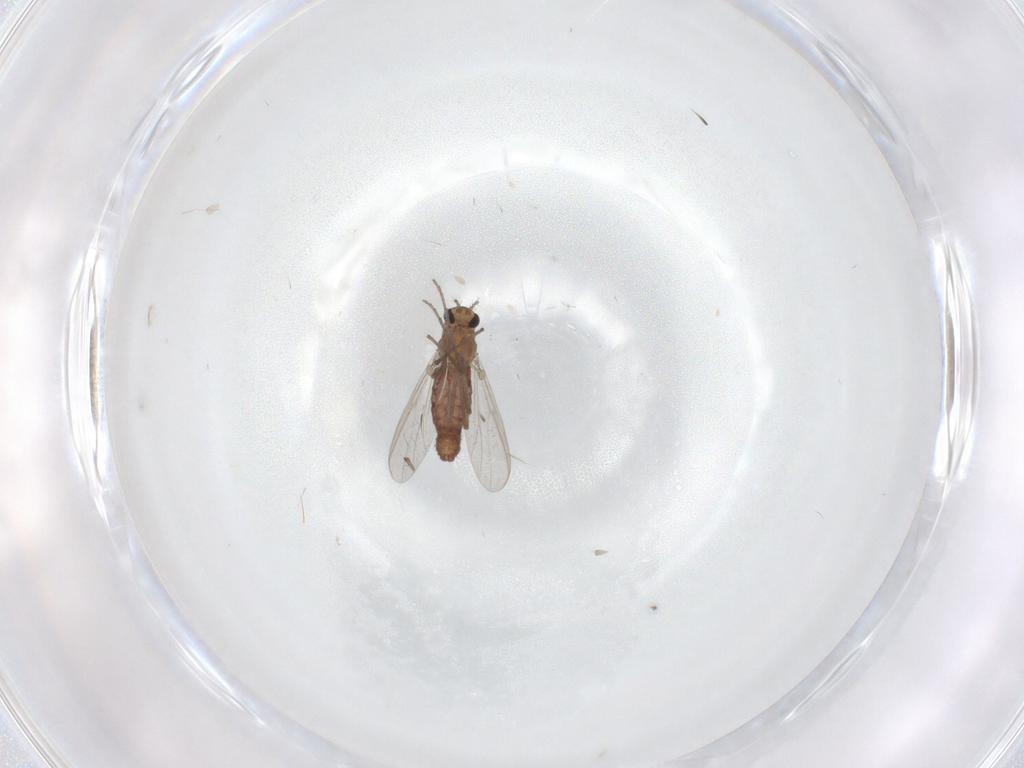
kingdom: Animalia
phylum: Arthropoda
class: Insecta
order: Diptera
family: Chironomidae
